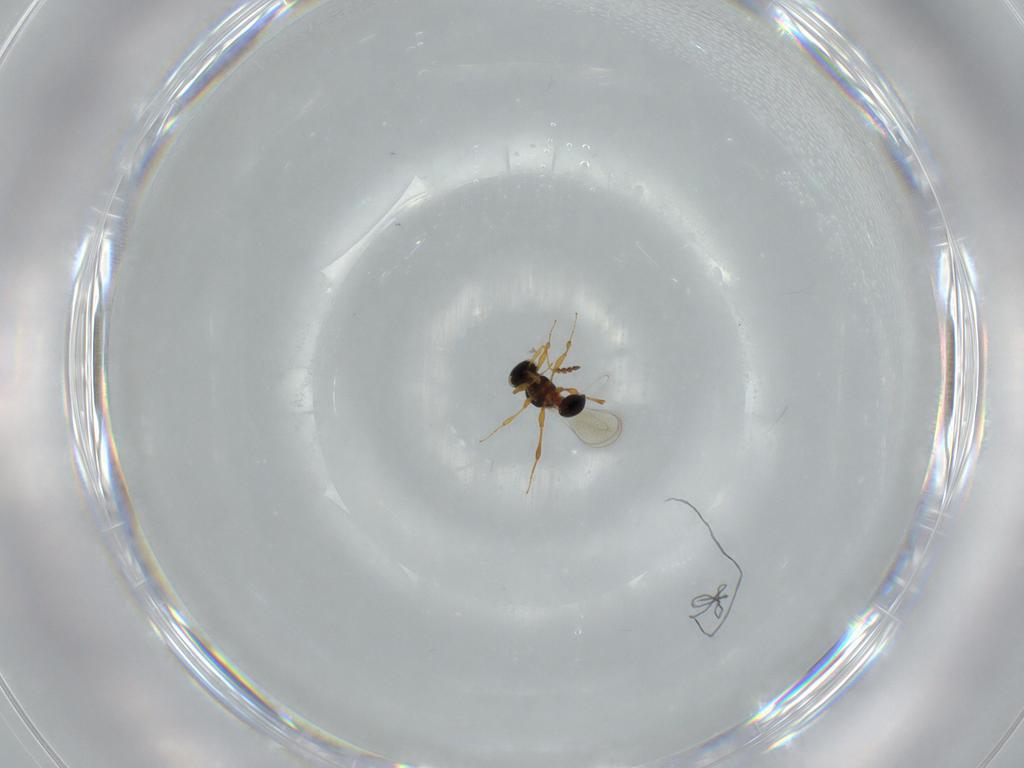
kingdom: Animalia
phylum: Arthropoda
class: Insecta
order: Hymenoptera
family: Platygastridae
